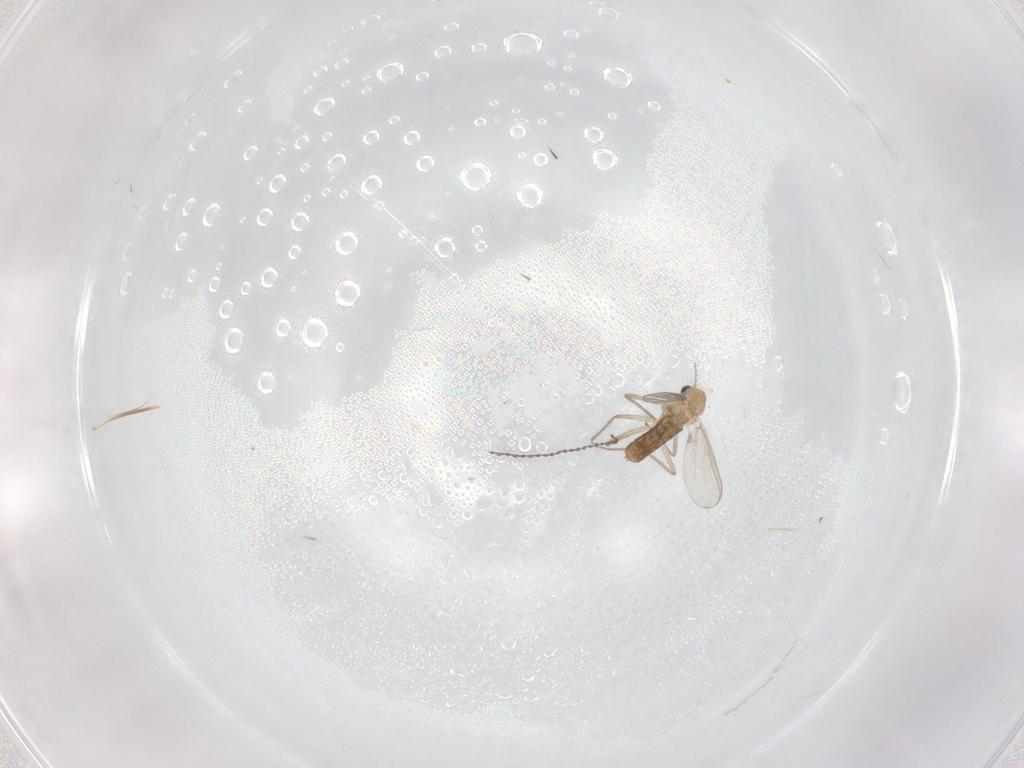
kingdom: Animalia
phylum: Arthropoda
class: Insecta
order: Diptera
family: Chironomidae
